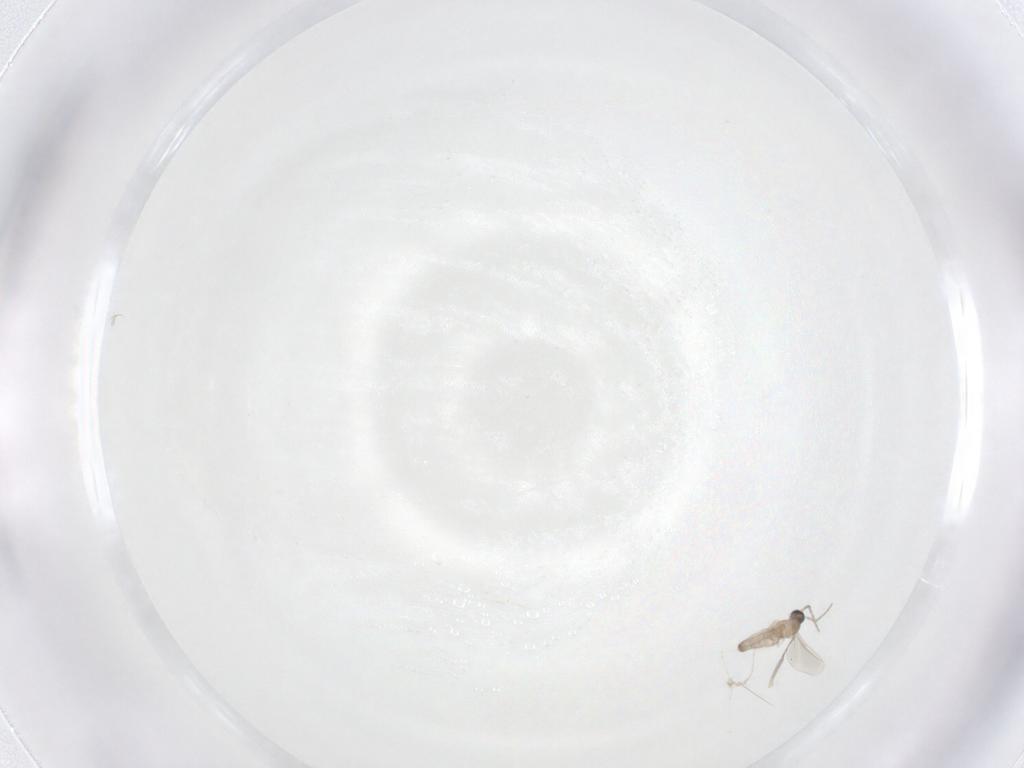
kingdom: Animalia
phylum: Arthropoda
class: Insecta
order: Diptera
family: Cecidomyiidae
